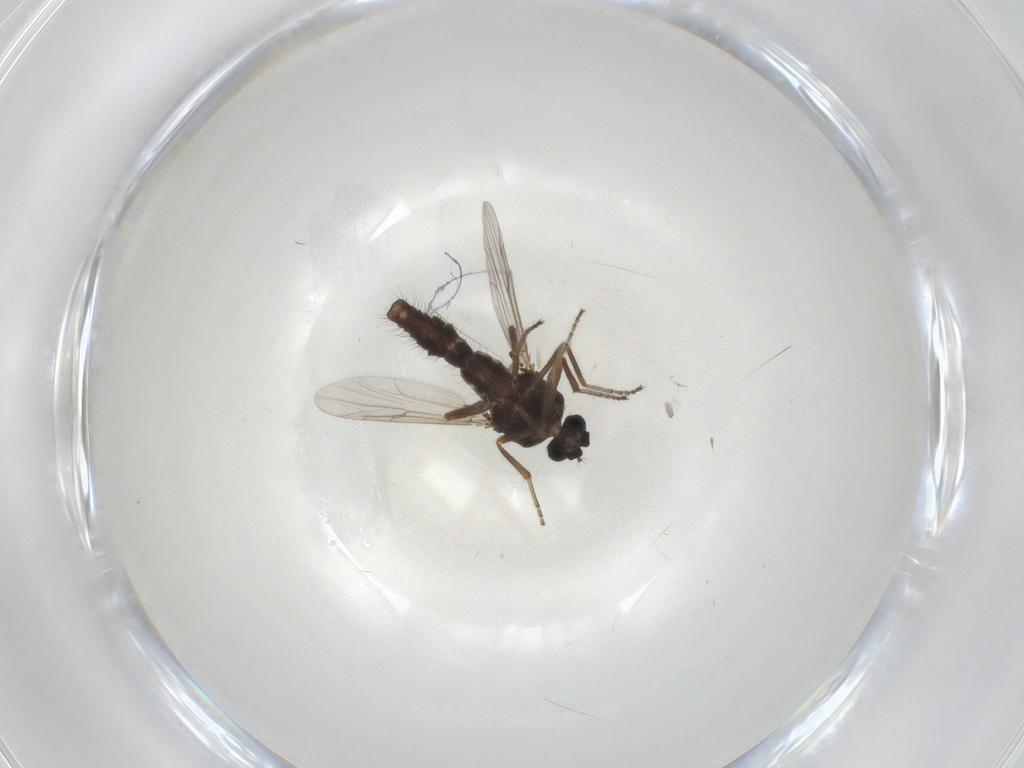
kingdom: Animalia
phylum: Arthropoda
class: Insecta
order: Diptera
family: Ceratopogonidae
